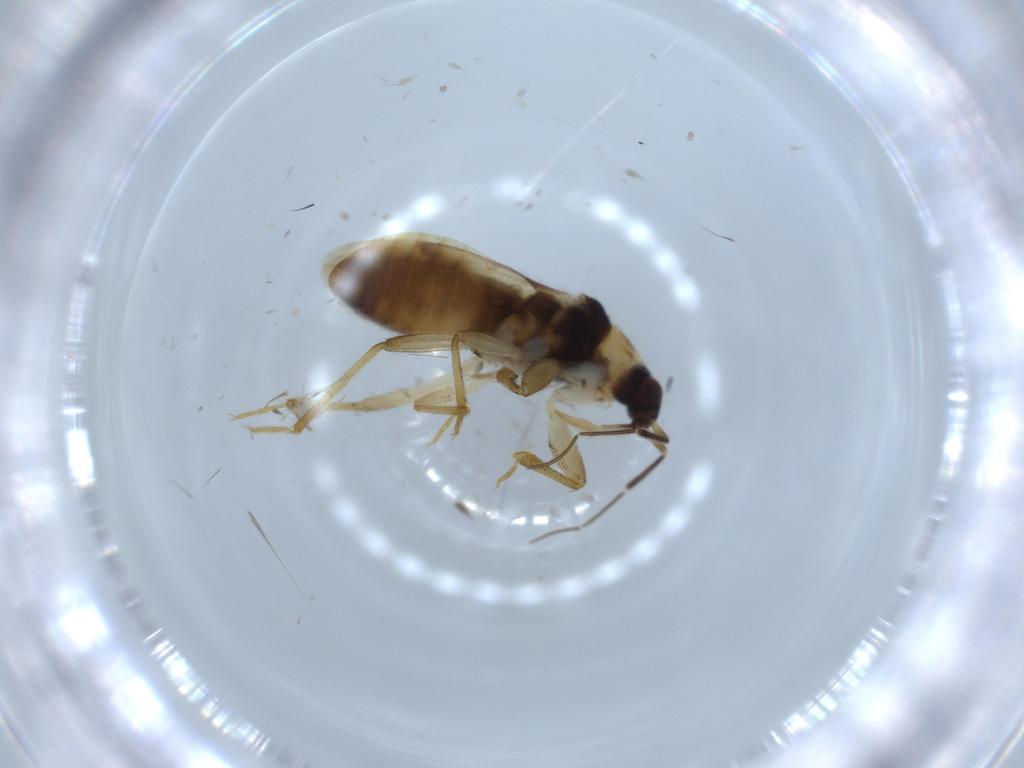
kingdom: Animalia
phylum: Arthropoda
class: Insecta
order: Hemiptera
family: Nabidae
